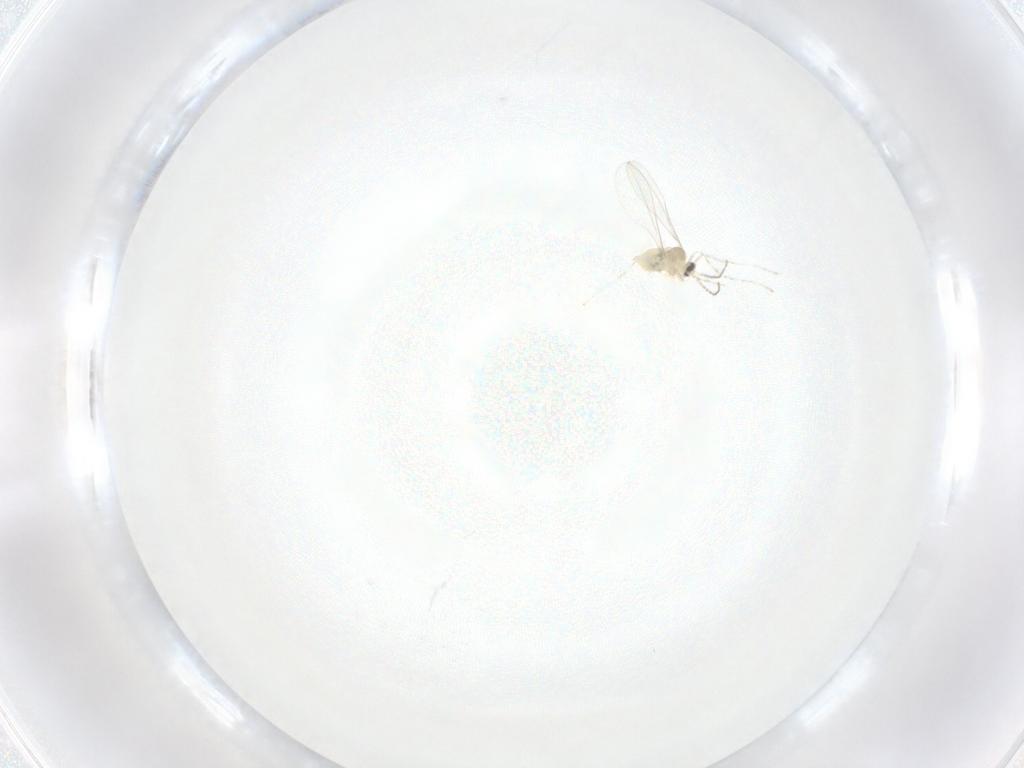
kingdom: Animalia
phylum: Arthropoda
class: Insecta
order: Diptera
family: Cecidomyiidae
